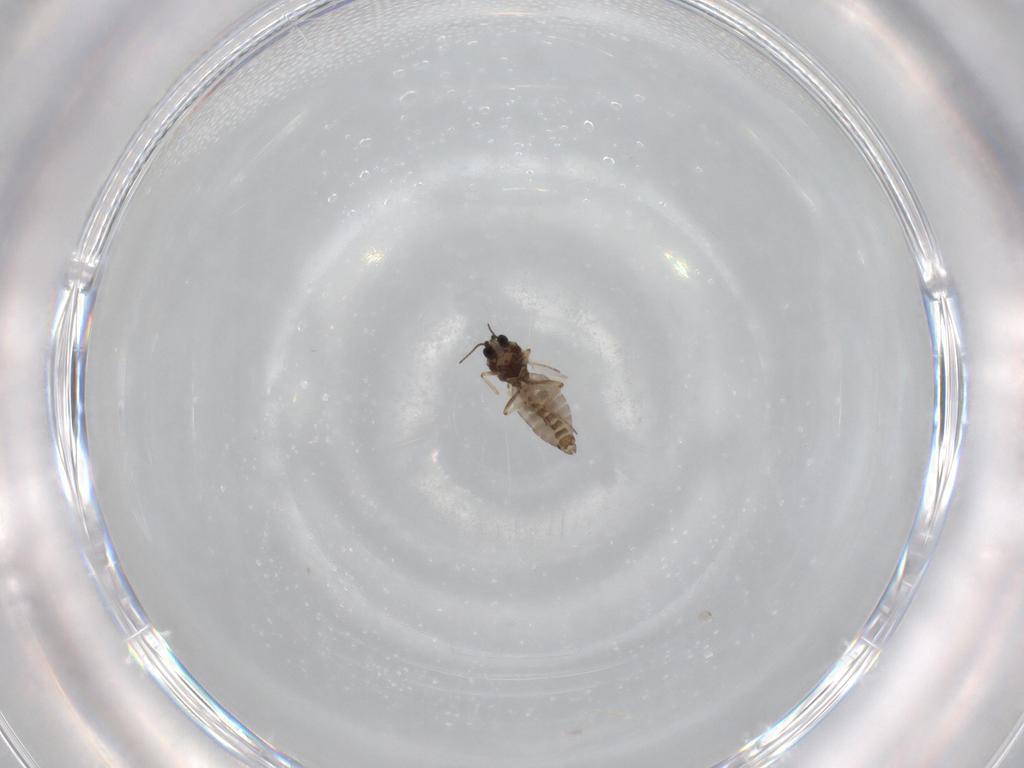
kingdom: Animalia
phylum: Arthropoda
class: Insecta
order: Diptera
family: Ceratopogonidae
